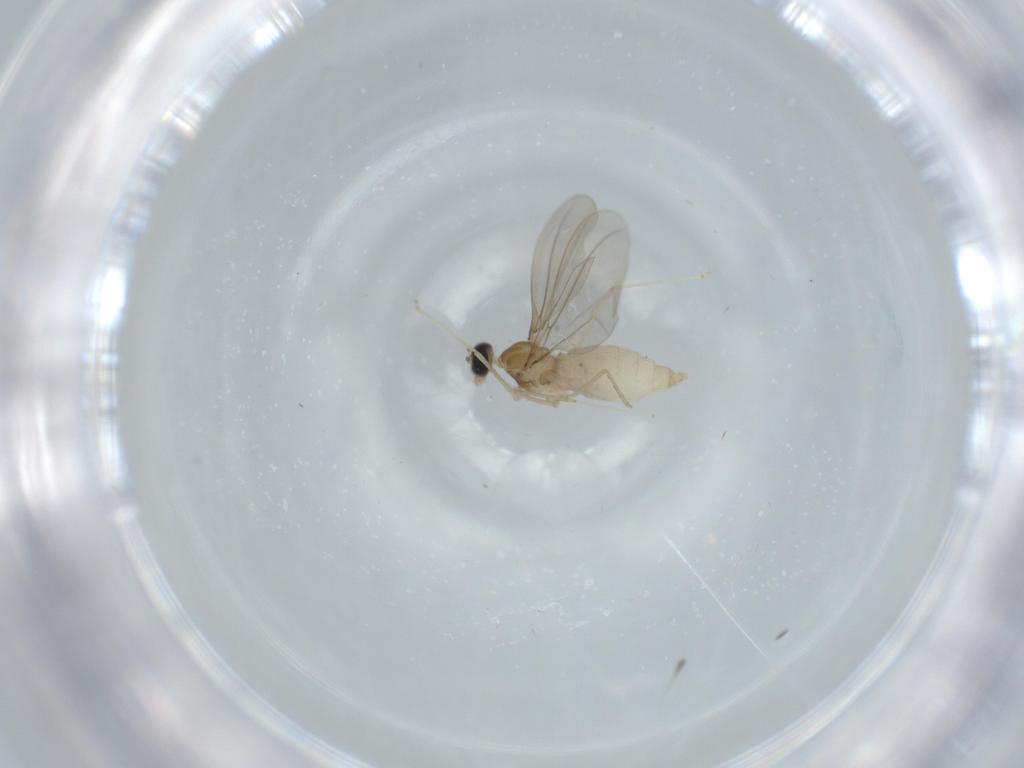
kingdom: Animalia
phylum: Arthropoda
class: Insecta
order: Diptera
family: Cecidomyiidae
